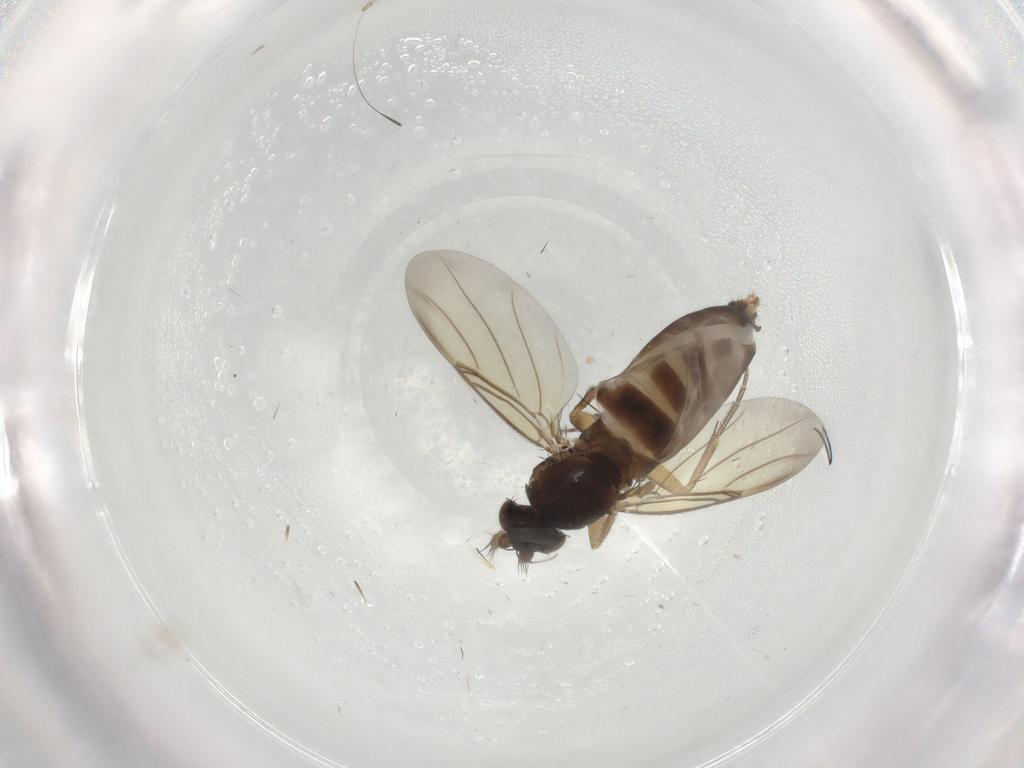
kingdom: Animalia
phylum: Arthropoda
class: Insecta
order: Diptera
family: Phoridae
